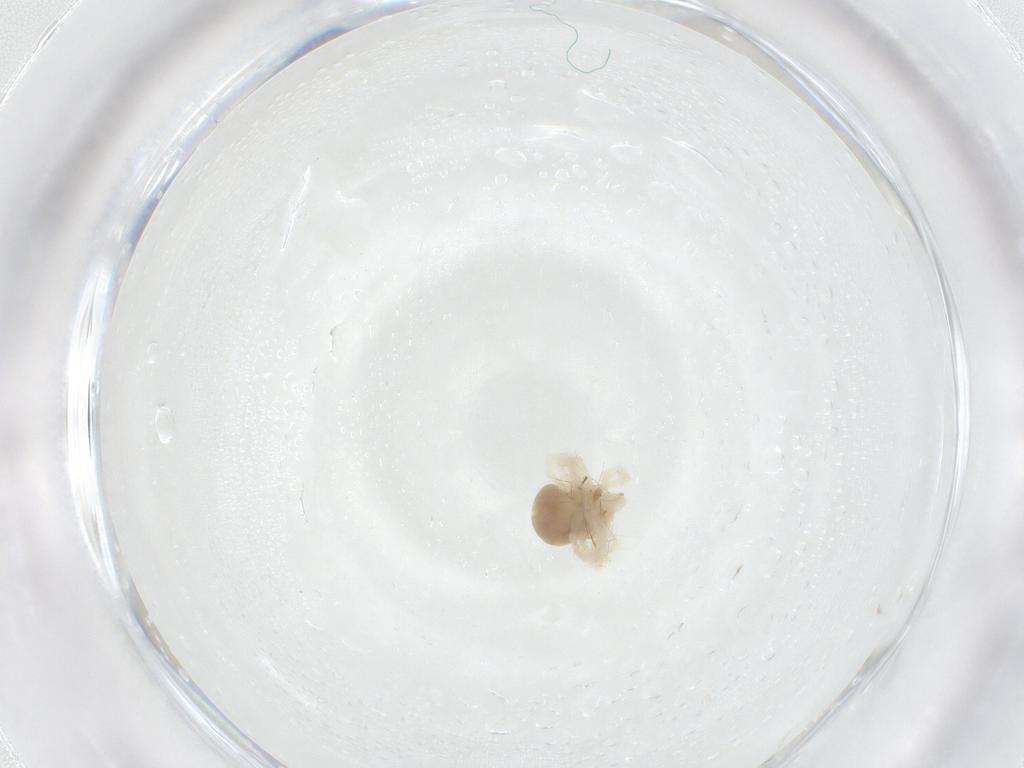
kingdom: Animalia
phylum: Arthropoda
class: Arachnida
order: Trombidiformes
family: Anystidae
